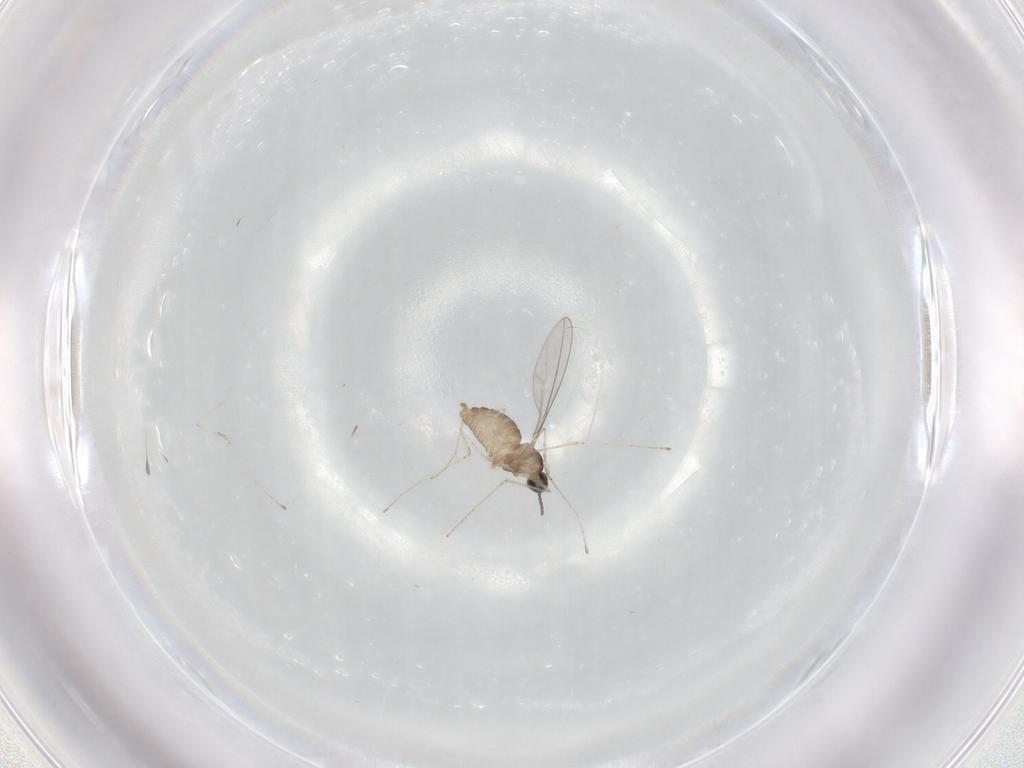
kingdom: Animalia
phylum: Arthropoda
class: Insecta
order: Diptera
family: Cecidomyiidae
